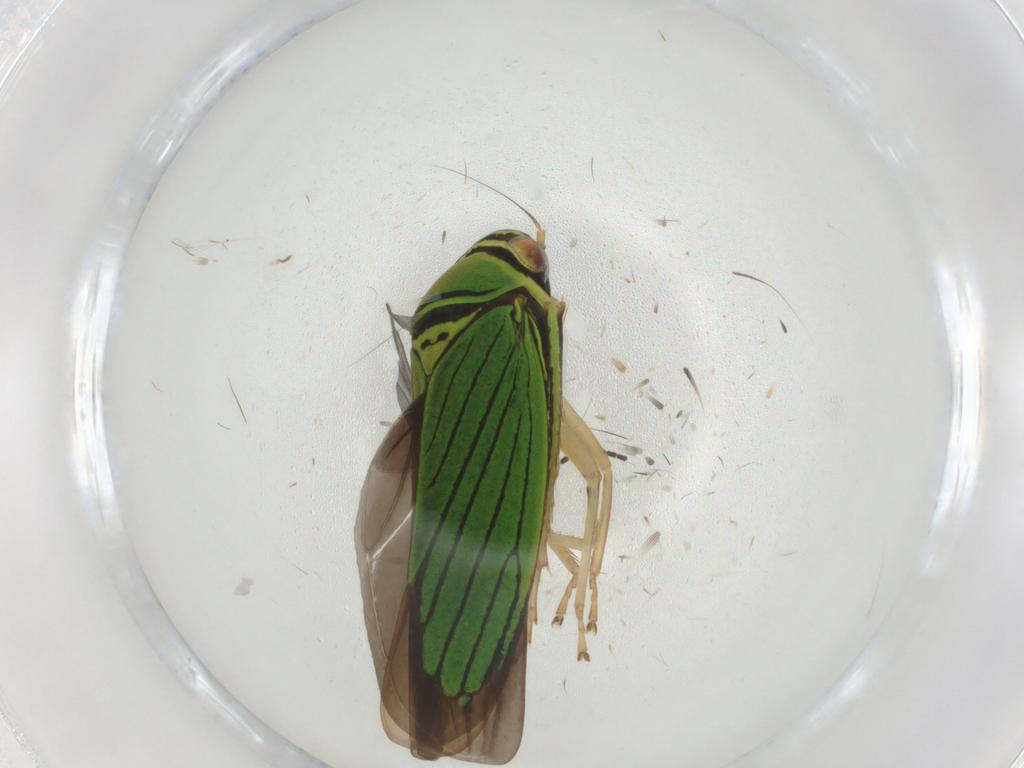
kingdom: Animalia
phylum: Arthropoda
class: Insecta
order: Hemiptera
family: Cicadellidae
